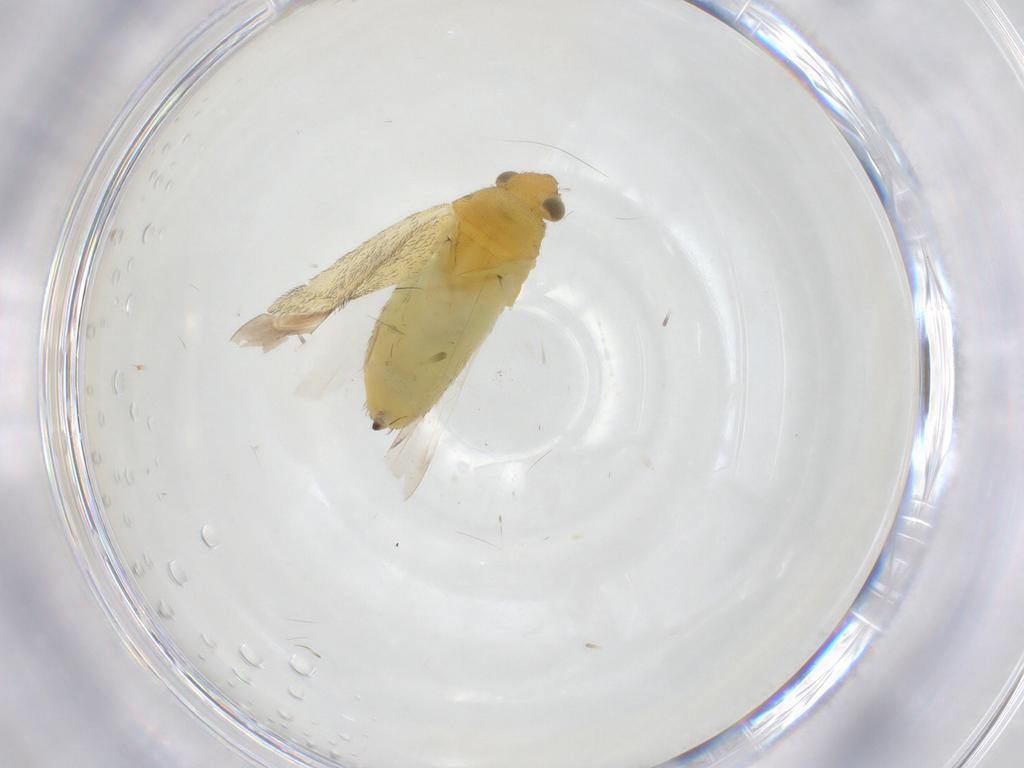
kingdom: Animalia
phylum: Arthropoda
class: Insecta
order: Hemiptera
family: Miridae
